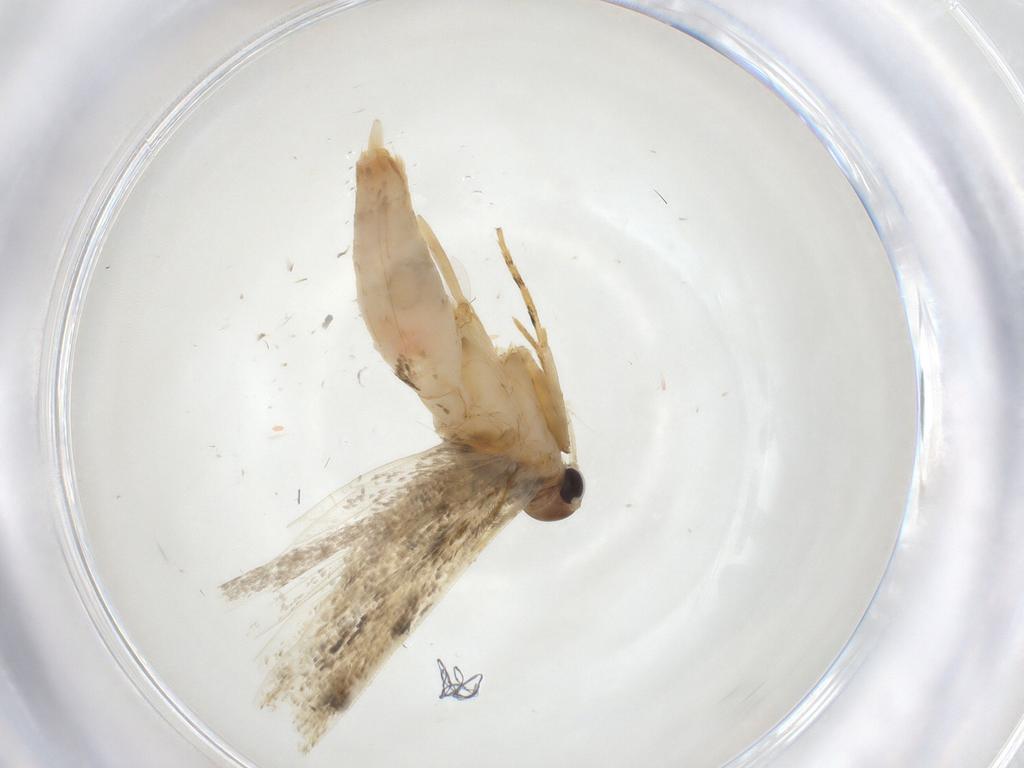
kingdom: Animalia
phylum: Arthropoda
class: Insecta
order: Lepidoptera
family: Gelechiidae
